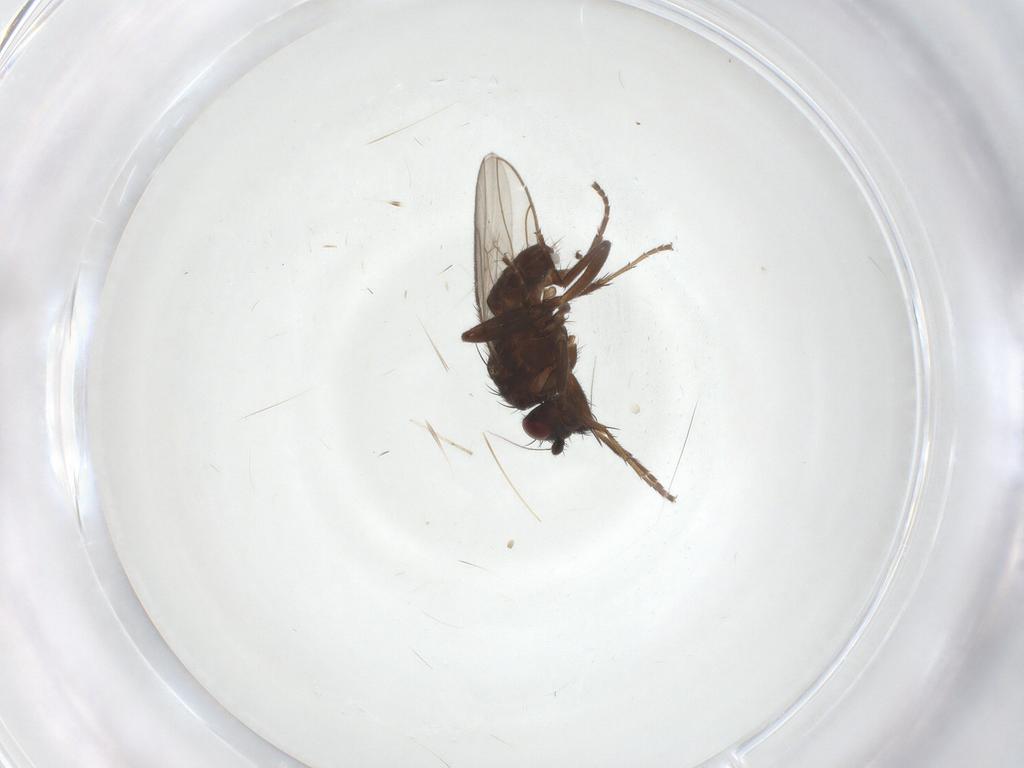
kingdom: Animalia
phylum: Arthropoda
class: Insecta
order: Diptera
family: Sphaeroceridae
